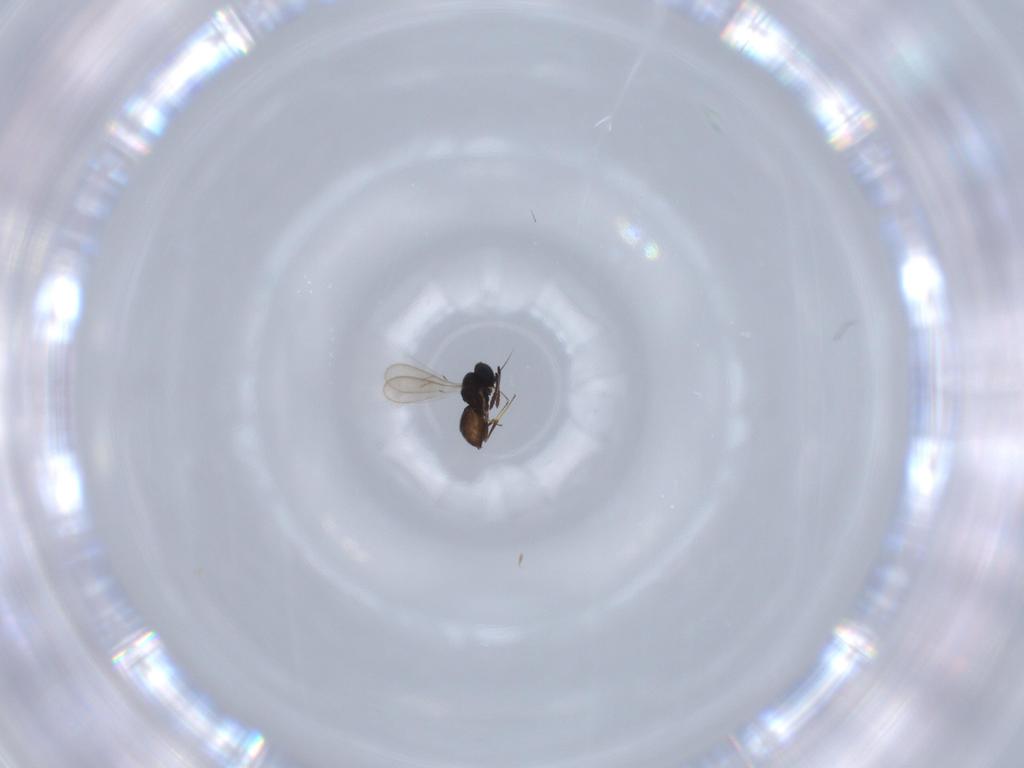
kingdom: Animalia
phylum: Arthropoda
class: Insecta
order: Hymenoptera
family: Scelionidae
